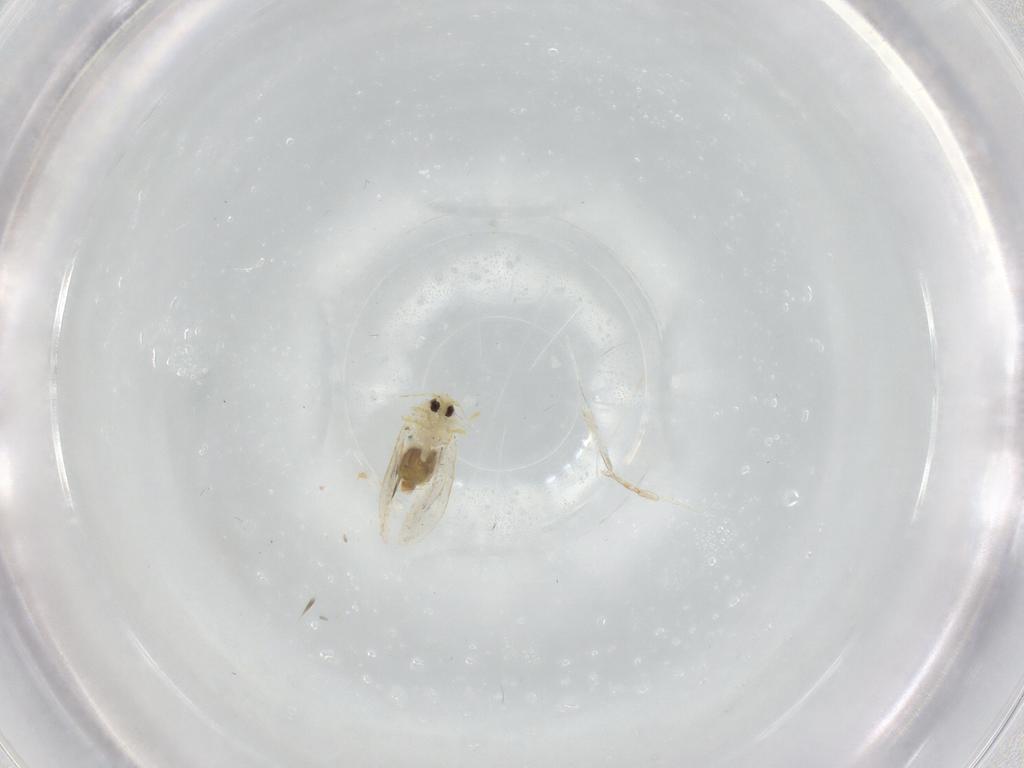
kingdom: Animalia
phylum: Arthropoda
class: Insecta
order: Hemiptera
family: Aleyrodidae
